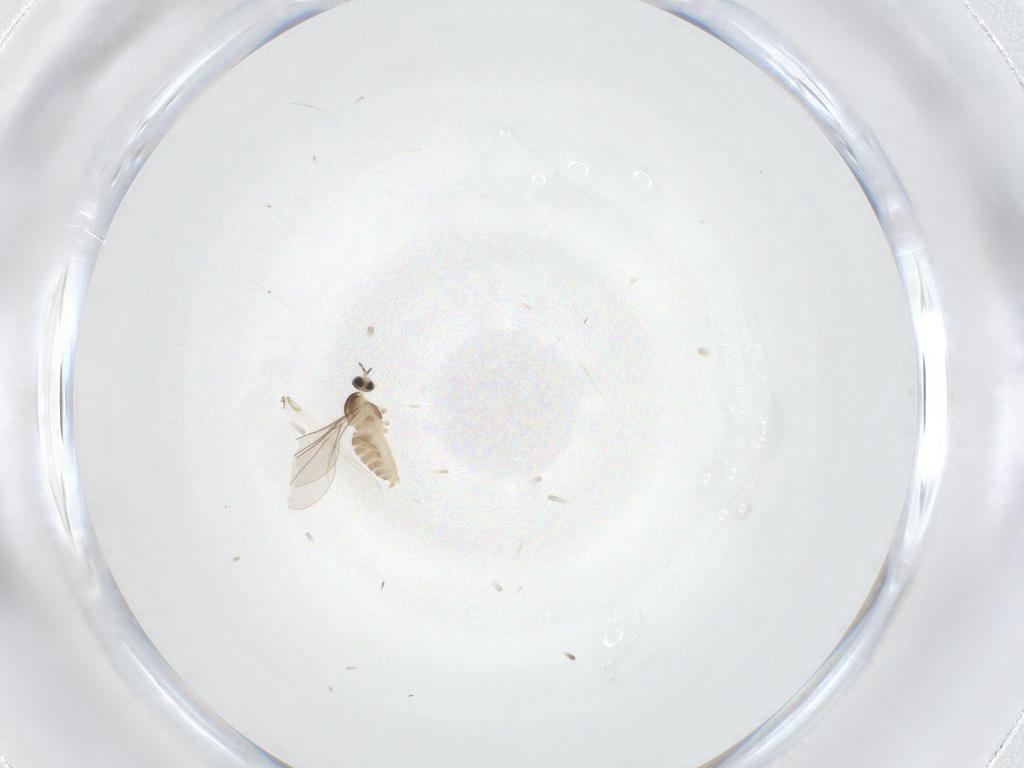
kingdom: Animalia
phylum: Arthropoda
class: Insecta
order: Diptera
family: Cecidomyiidae
